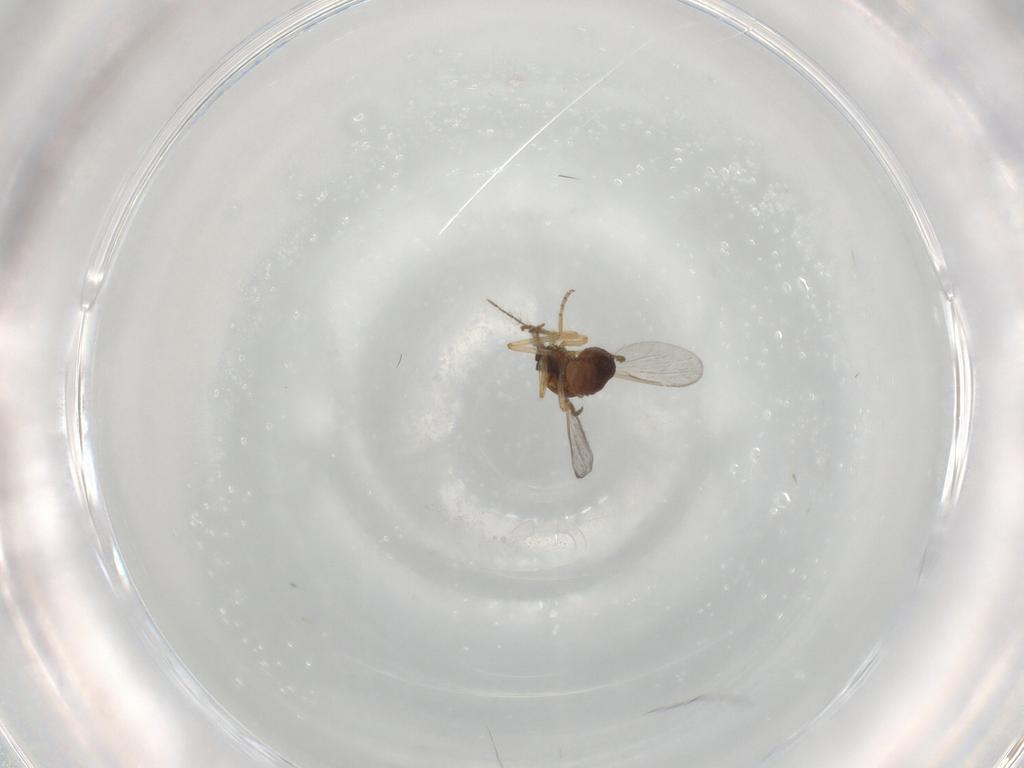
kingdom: Animalia
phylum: Arthropoda
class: Insecta
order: Diptera
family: Ceratopogonidae
